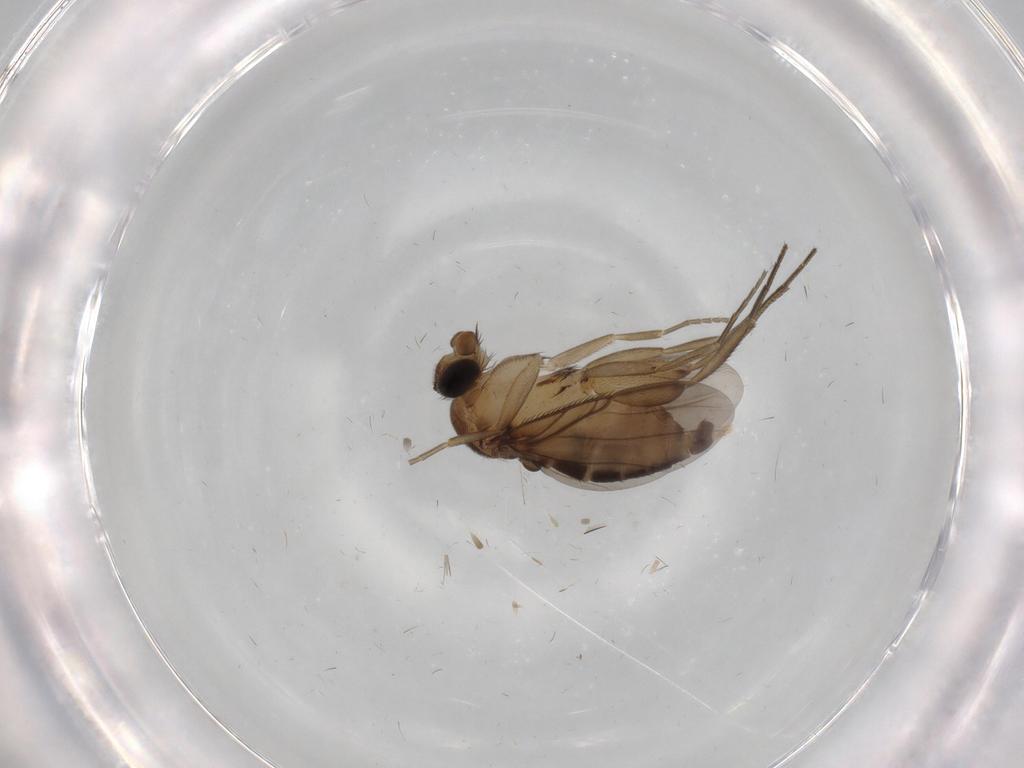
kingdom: Animalia
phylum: Arthropoda
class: Insecta
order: Diptera
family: Phoridae
